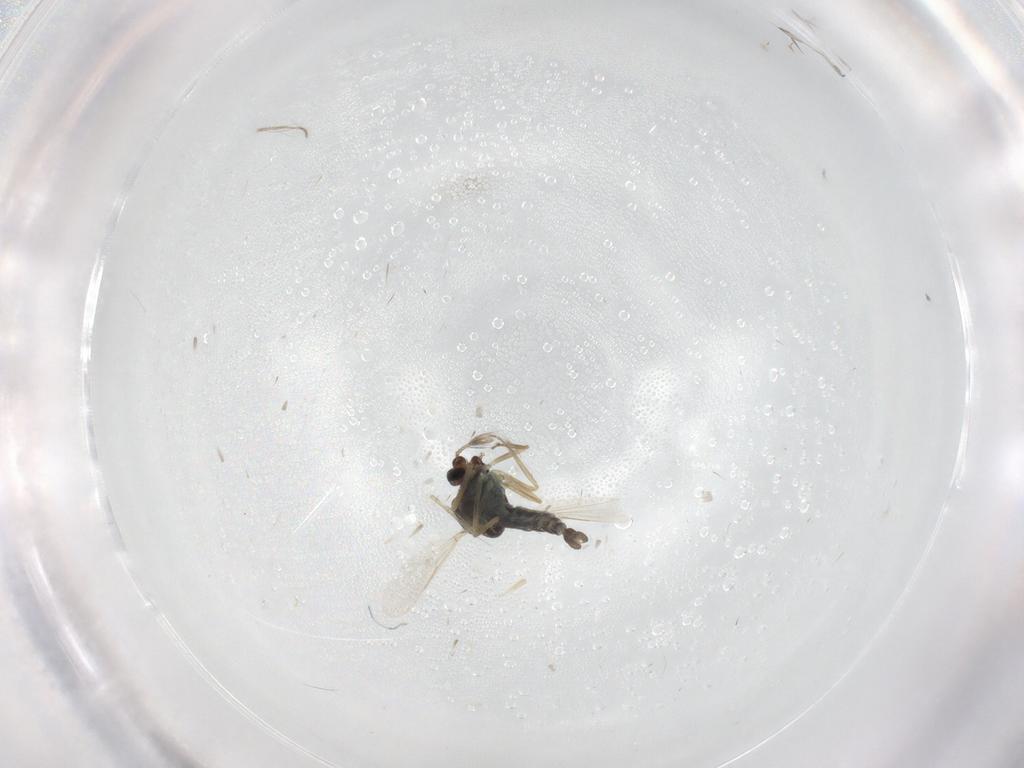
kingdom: Animalia
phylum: Arthropoda
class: Insecta
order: Diptera
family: Ceratopogonidae
